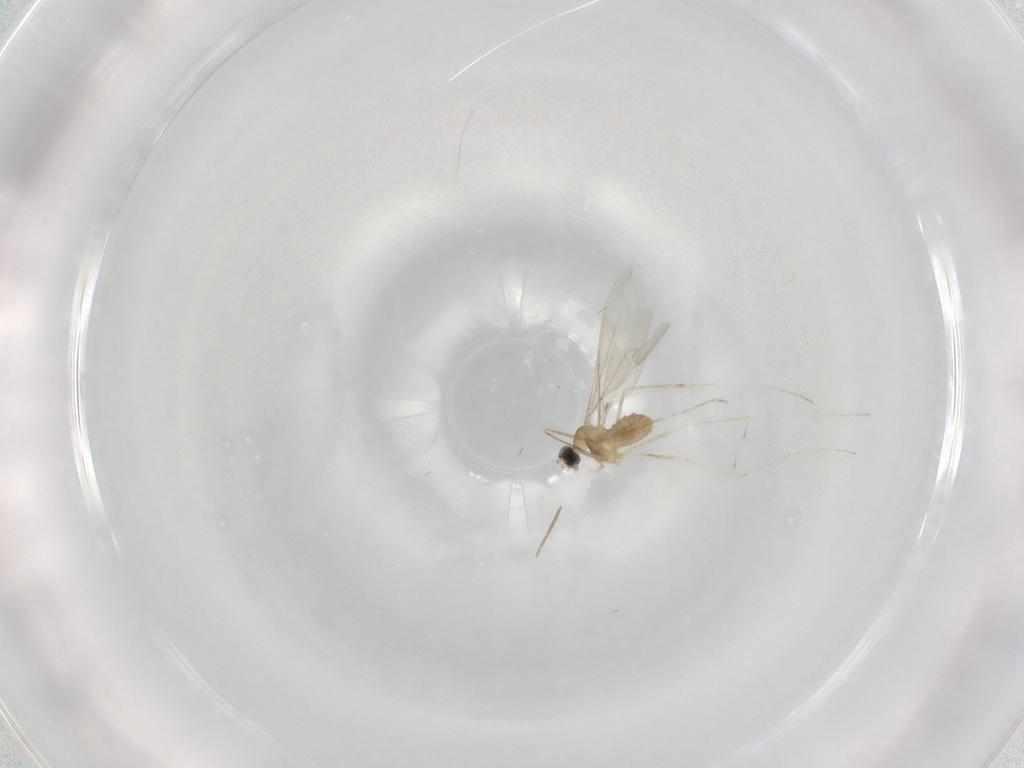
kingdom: Animalia
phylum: Arthropoda
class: Insecta
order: Diptera
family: Cecidomyiidae
